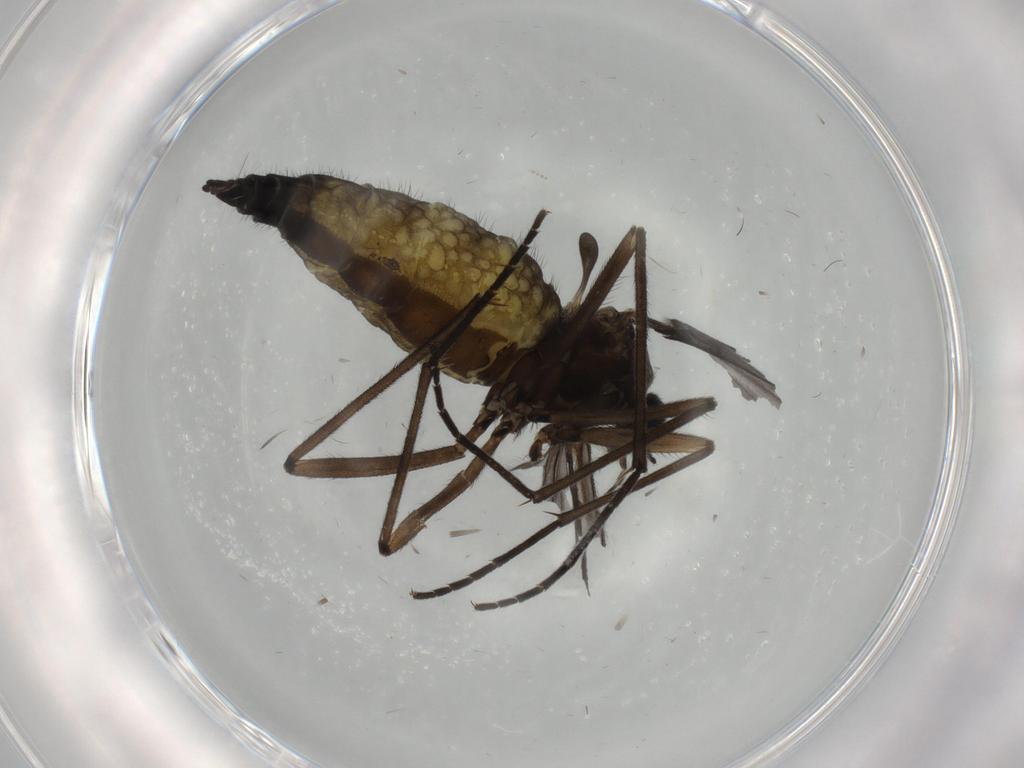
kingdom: Animalia
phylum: Arthropoda
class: Insecta
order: Diptera
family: Sciaridae
